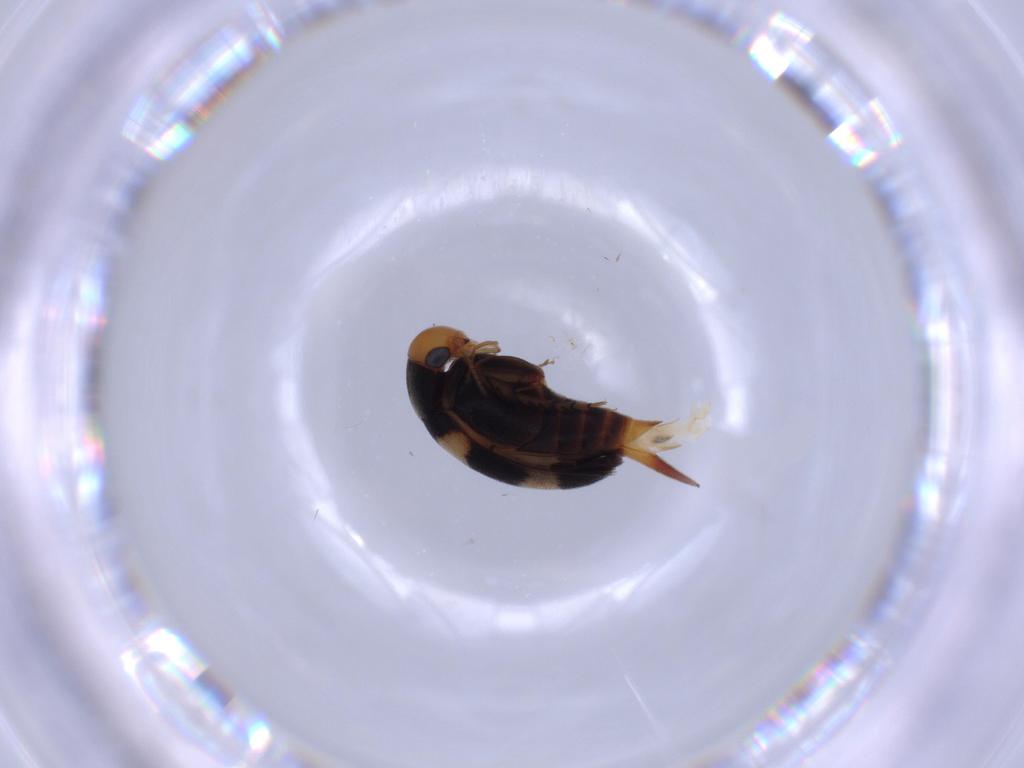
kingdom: Animalia
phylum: Arthropoda
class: Insecta
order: Coleoptera
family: Mordellidae
